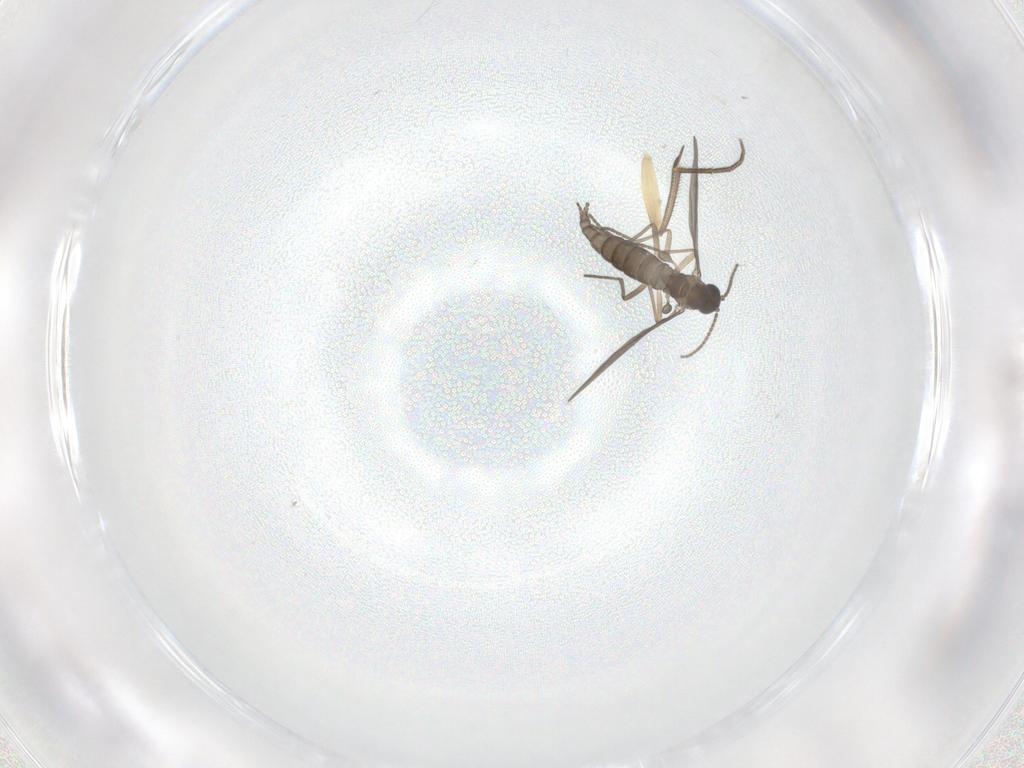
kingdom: Animalia
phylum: Arthropoda
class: Insecta
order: Diptera
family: Mycetophilidae
